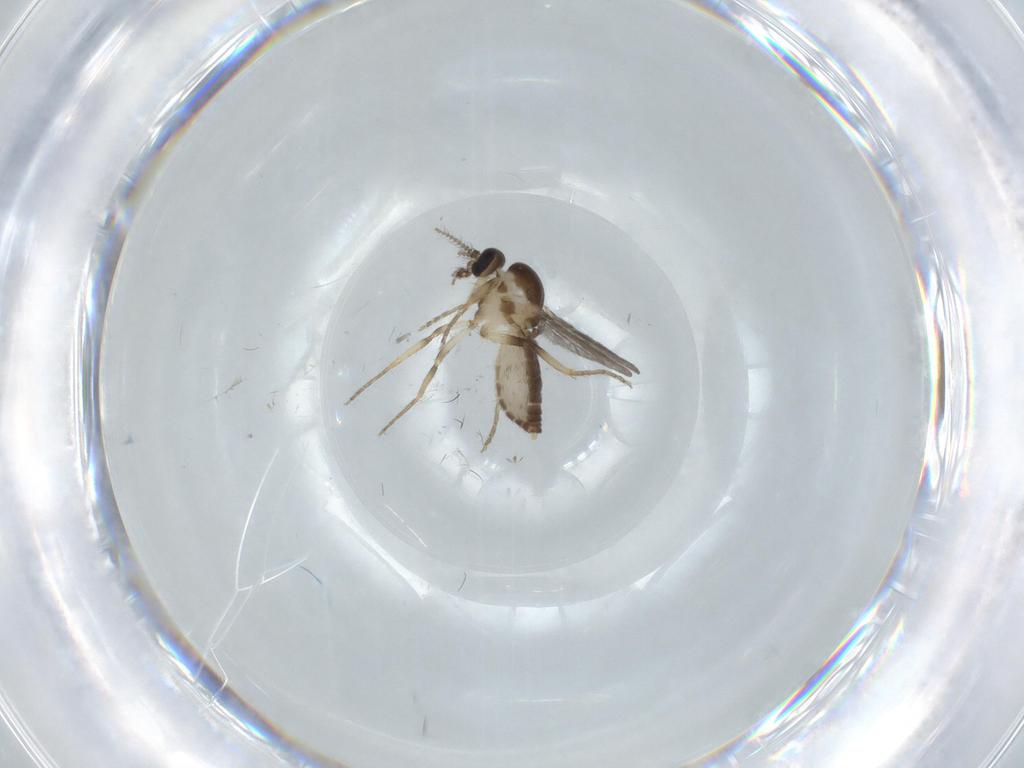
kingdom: Animalia
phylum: Arthropoda
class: Insecta
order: Diptera
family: Ceratopogonidae
